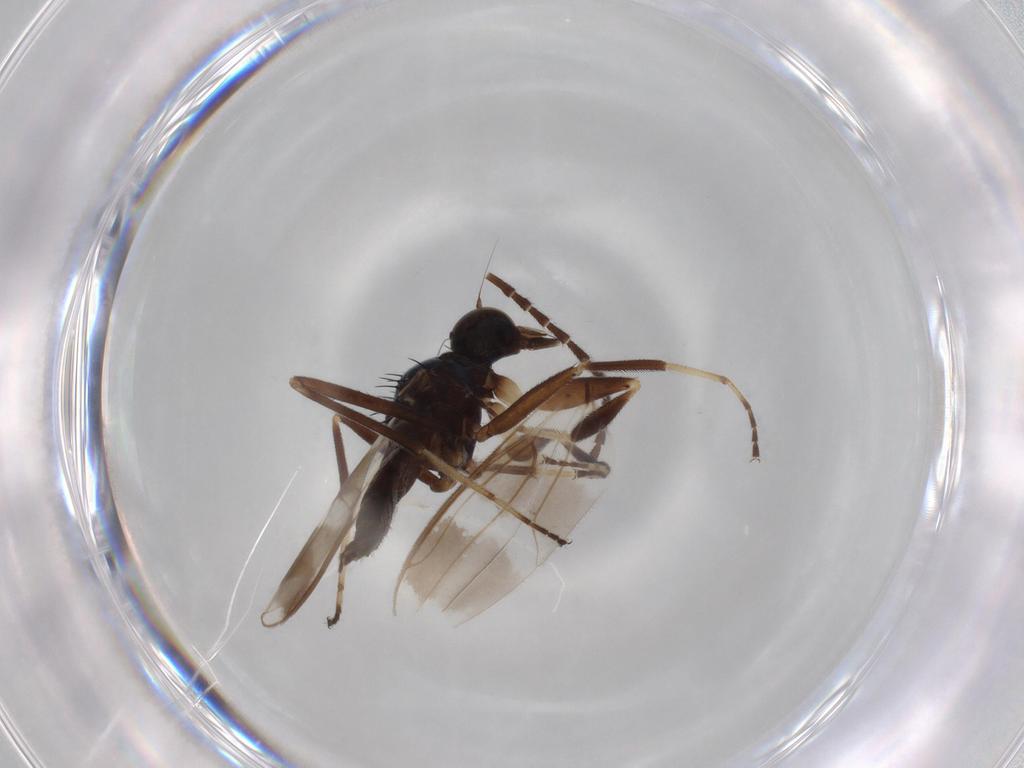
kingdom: Animalia
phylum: Arthropoda
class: Insecta
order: Diptera
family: Hybotidae
